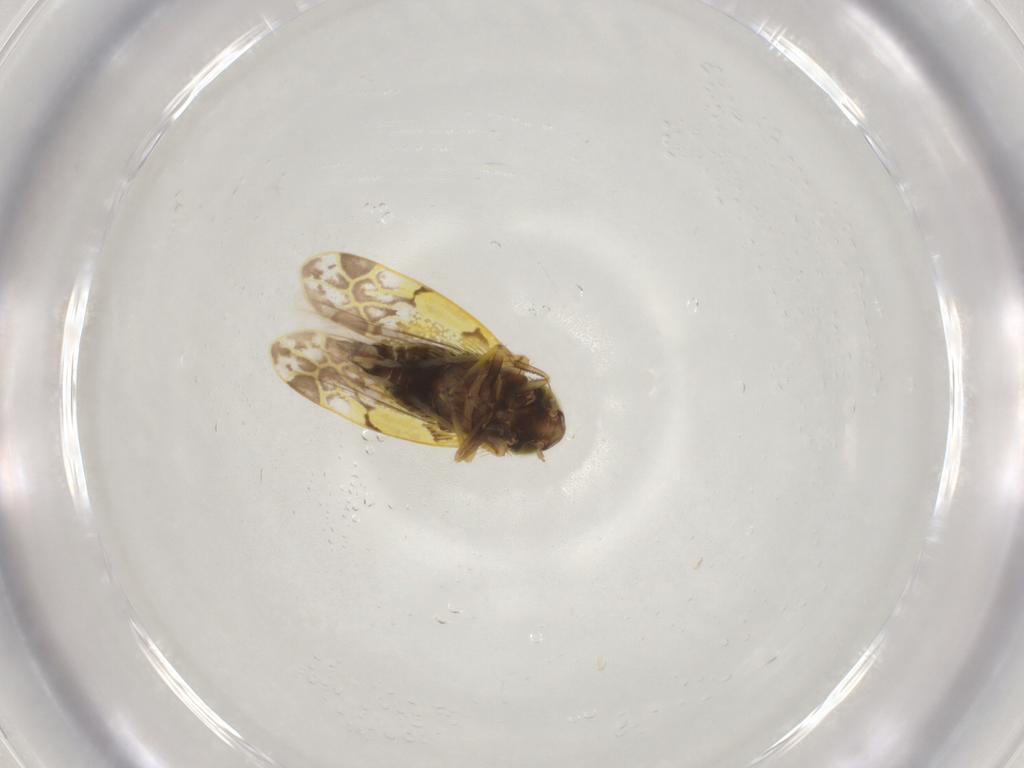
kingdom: Animalia
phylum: Arthropoda
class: Insecta
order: Hemiptera
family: Cicadellidae
